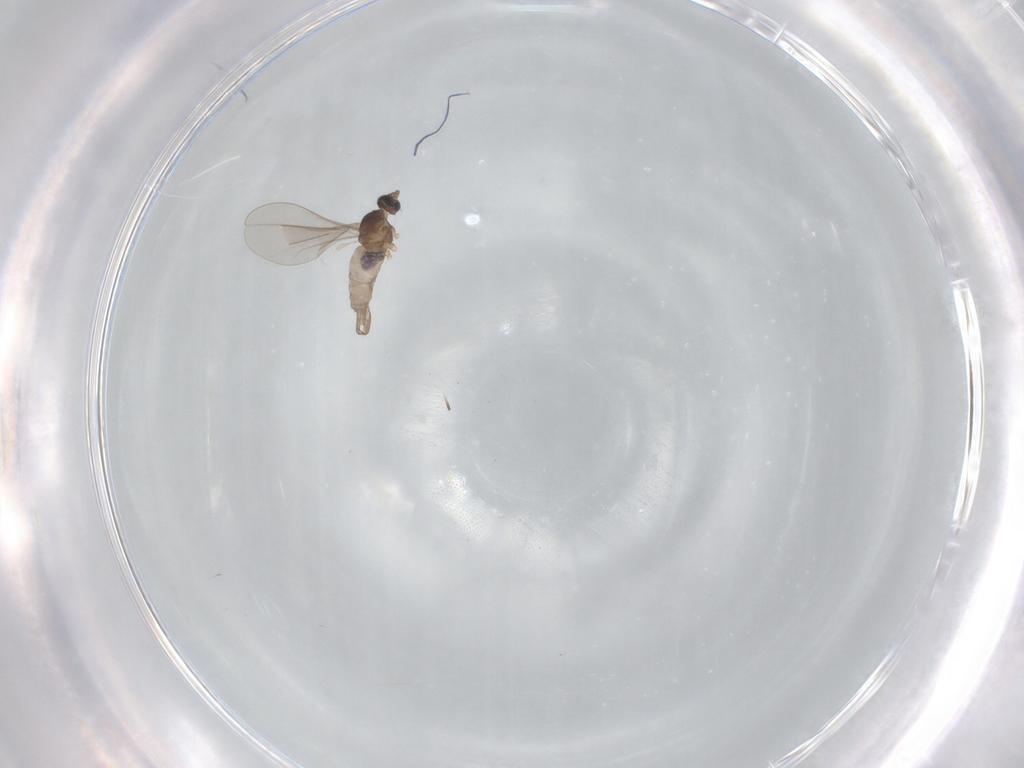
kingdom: Animalia
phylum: Arthropoda
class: Insecta
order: Diptera
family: Cecidomyiidae
